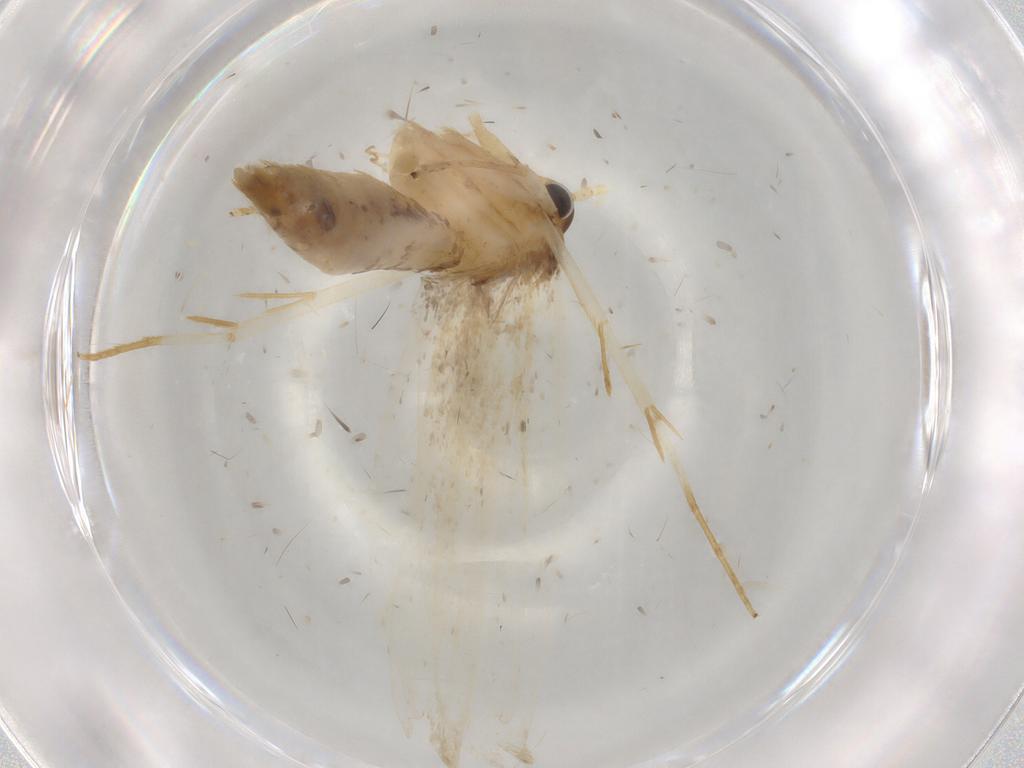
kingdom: Animalia
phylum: Arthropoda
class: Insecta
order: Lepidoptera
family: Lecithoceridae
